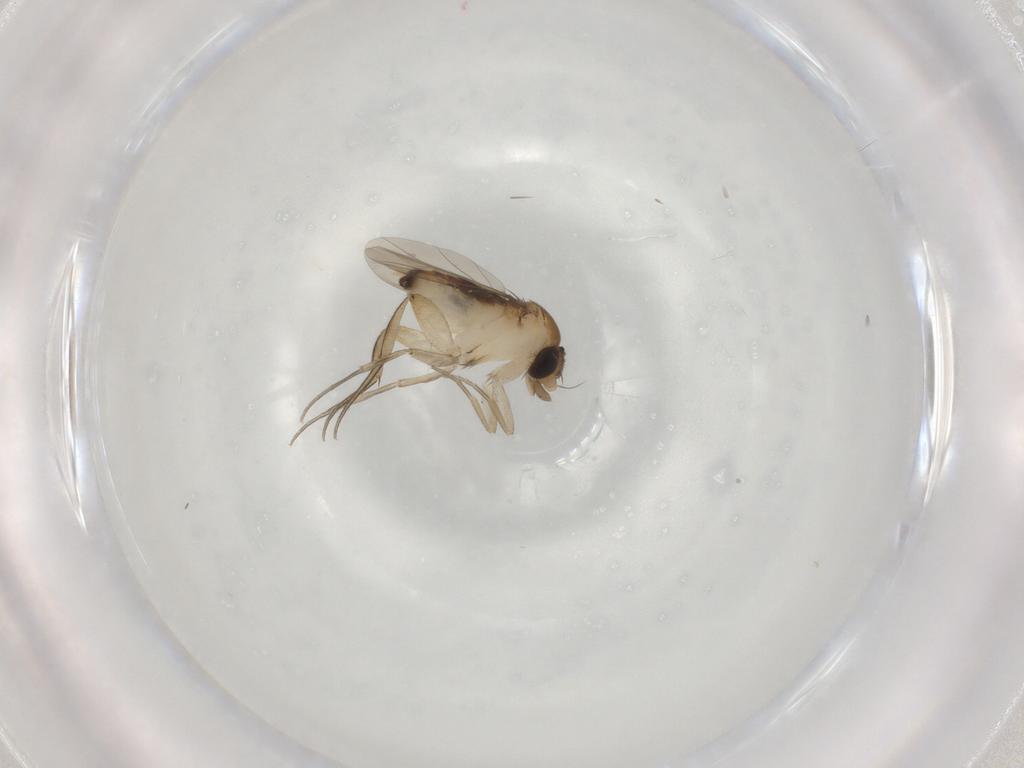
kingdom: Animalia
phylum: Arthropoda
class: Insecta
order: Diptera
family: Phoridae
